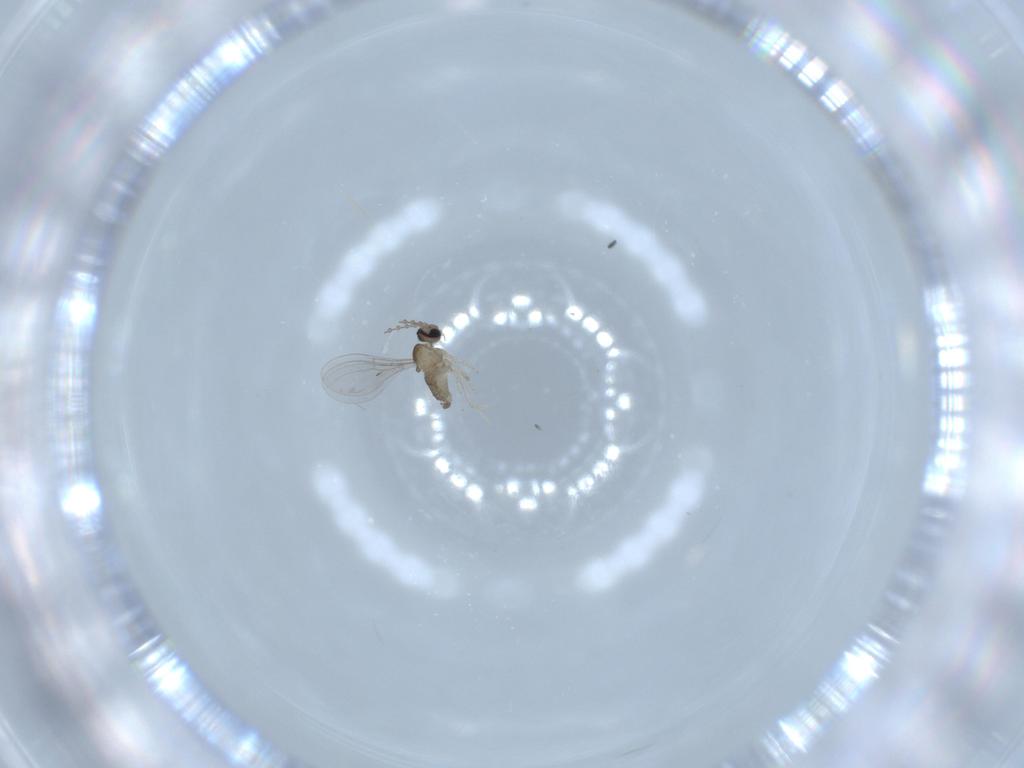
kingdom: Animalia
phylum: Arthropoda
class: Insecta
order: Diptera
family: Cecidomyiidae
